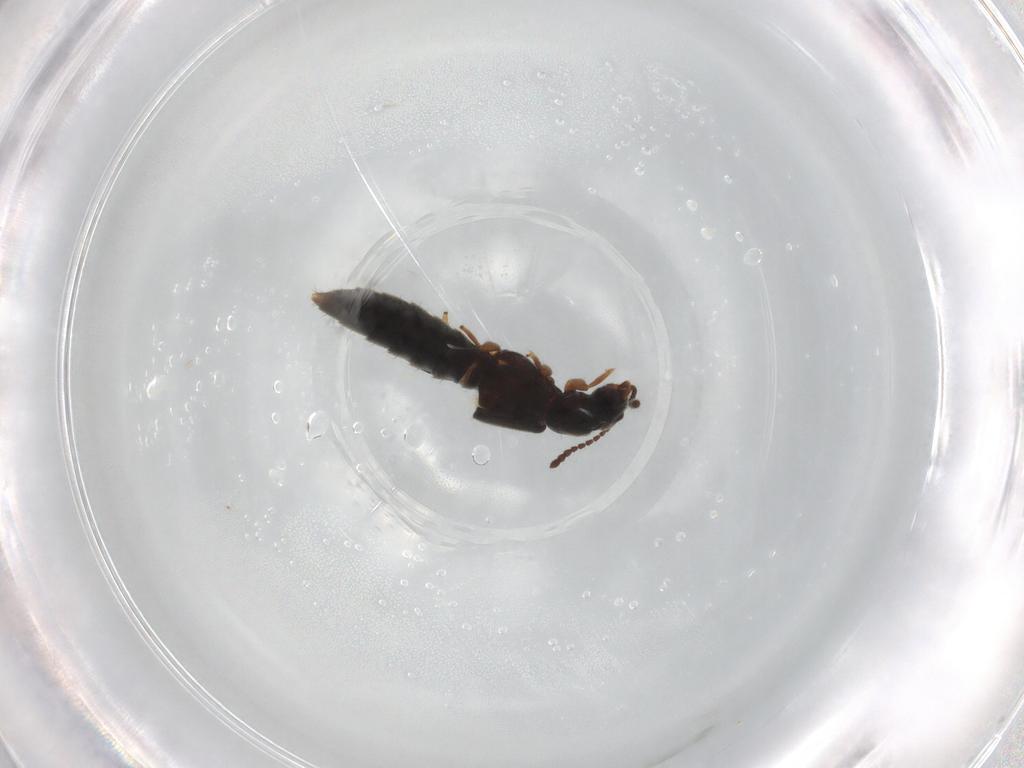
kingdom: Animalia
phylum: Arthropoda
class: Insecta
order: Coleoptera
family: Staphylinidae
